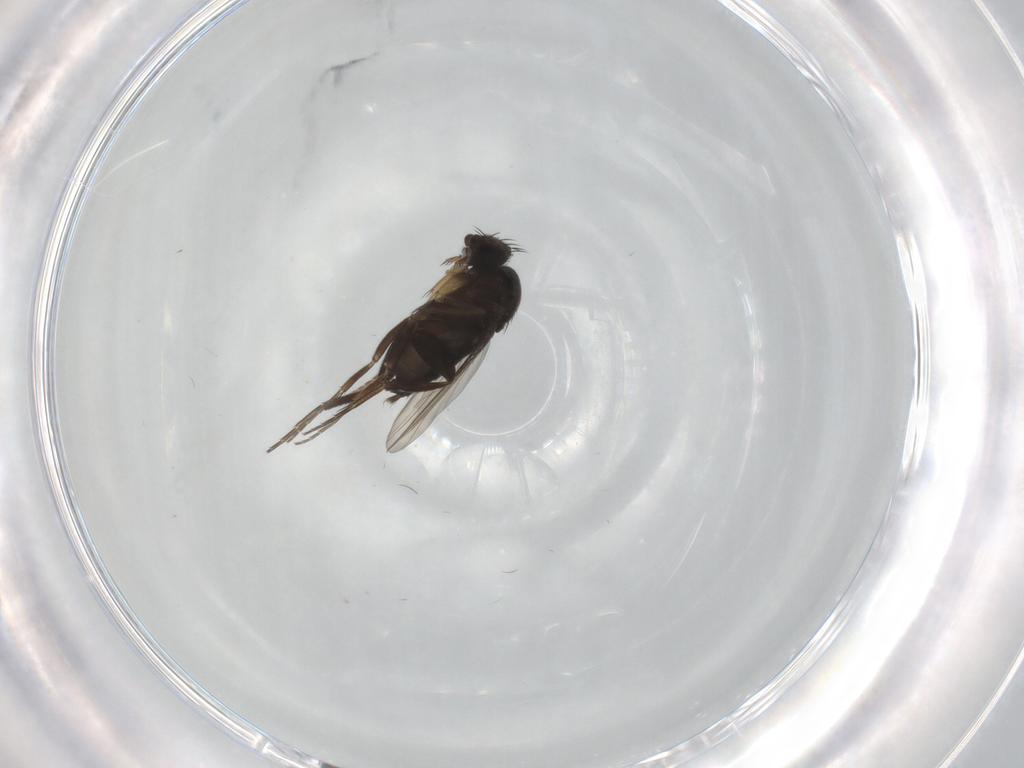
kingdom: Animalia
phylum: Arthropoda
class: Insecta
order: Diptera
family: Phoridae
